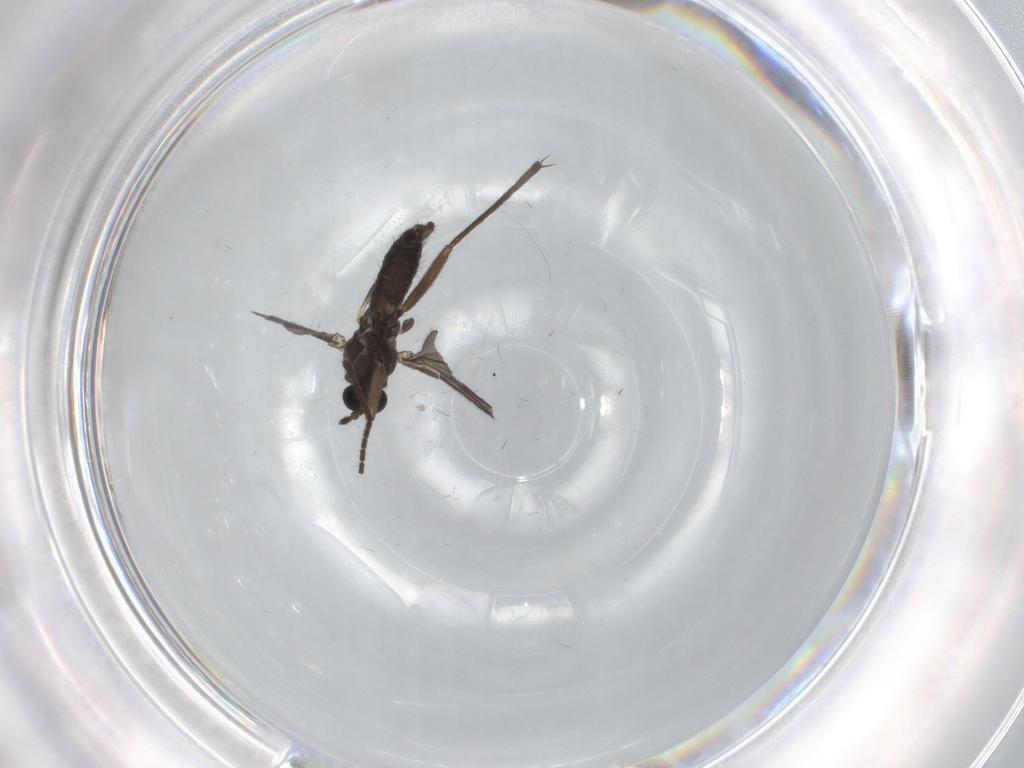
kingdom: Animalia
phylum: Arthropoda
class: Insecta
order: Diptera
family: Sciaridae
